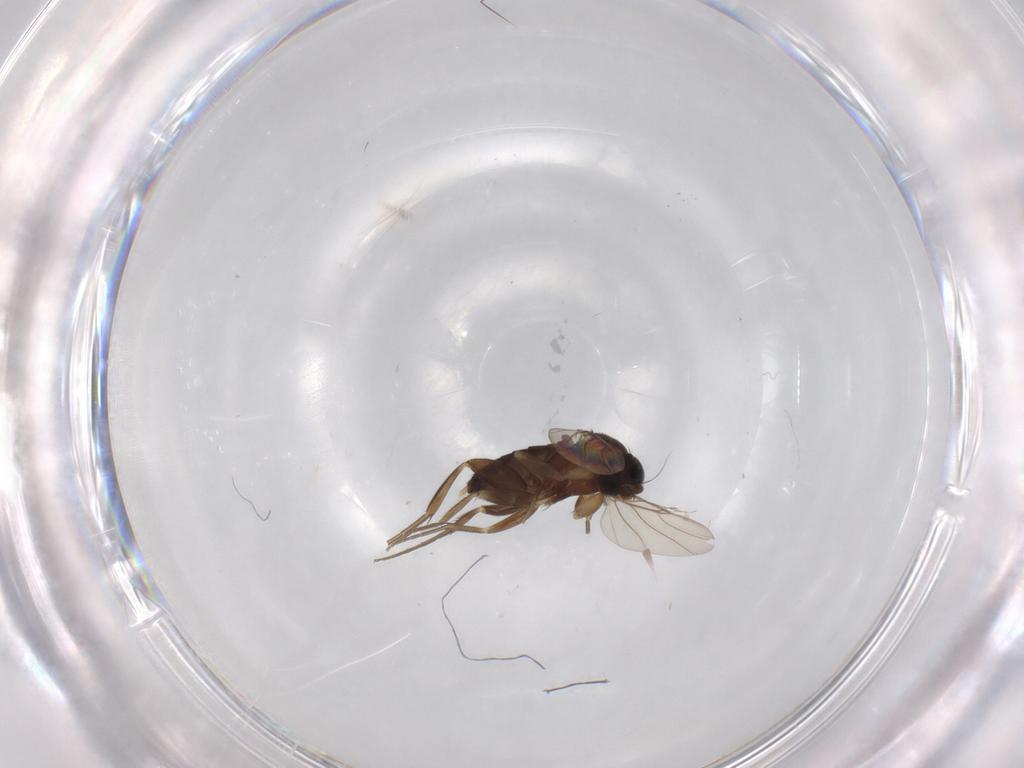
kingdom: Animalia
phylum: Arthropoda
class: Insecta
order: Diptera
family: Phoridae
